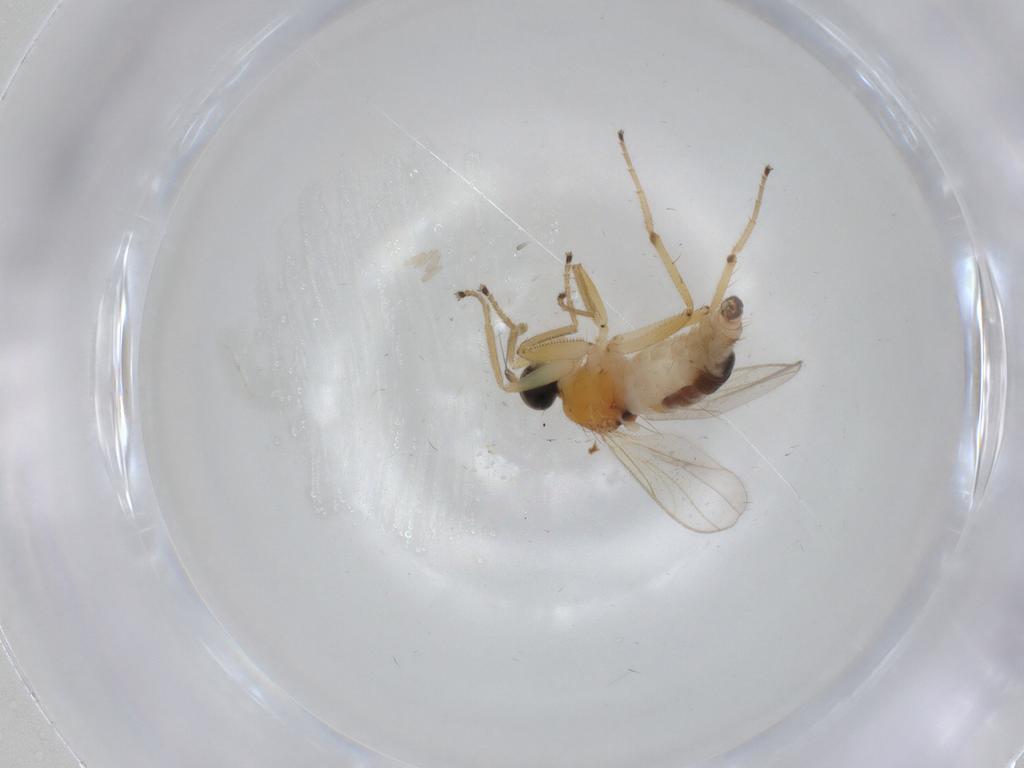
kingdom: Animalia
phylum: Arthropoda
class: Insecta
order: Diptera
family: Hybotidae
